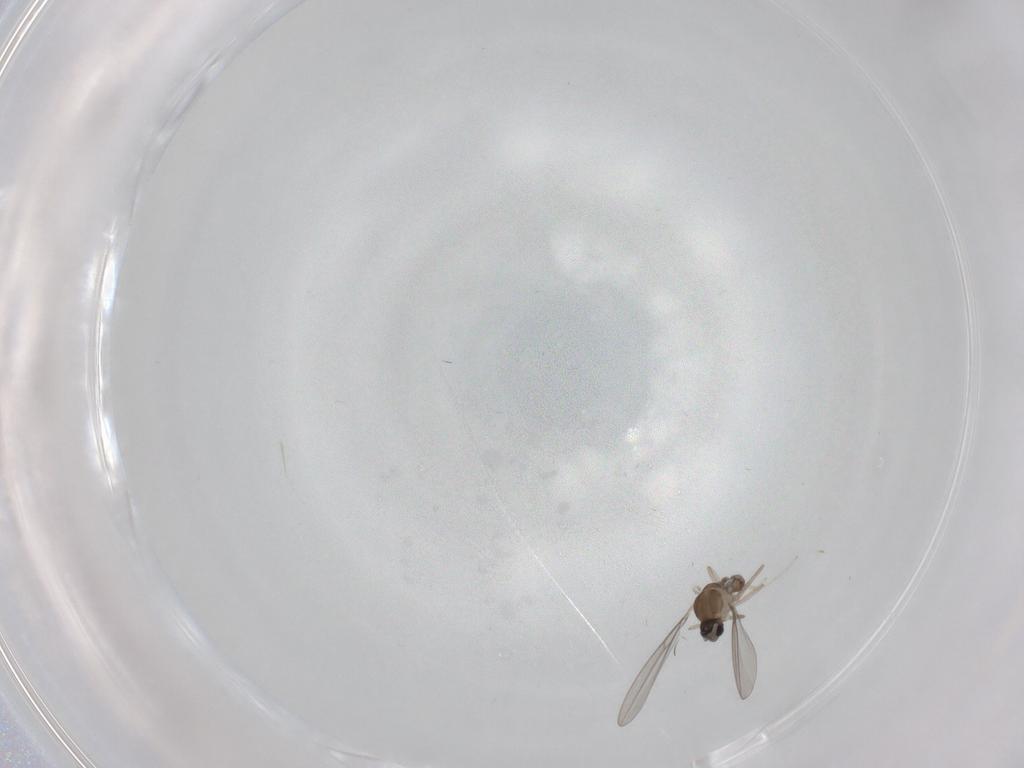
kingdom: Animalia
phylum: Arthropoda
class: Insecta
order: Diptera
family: Cecidomyiidae
